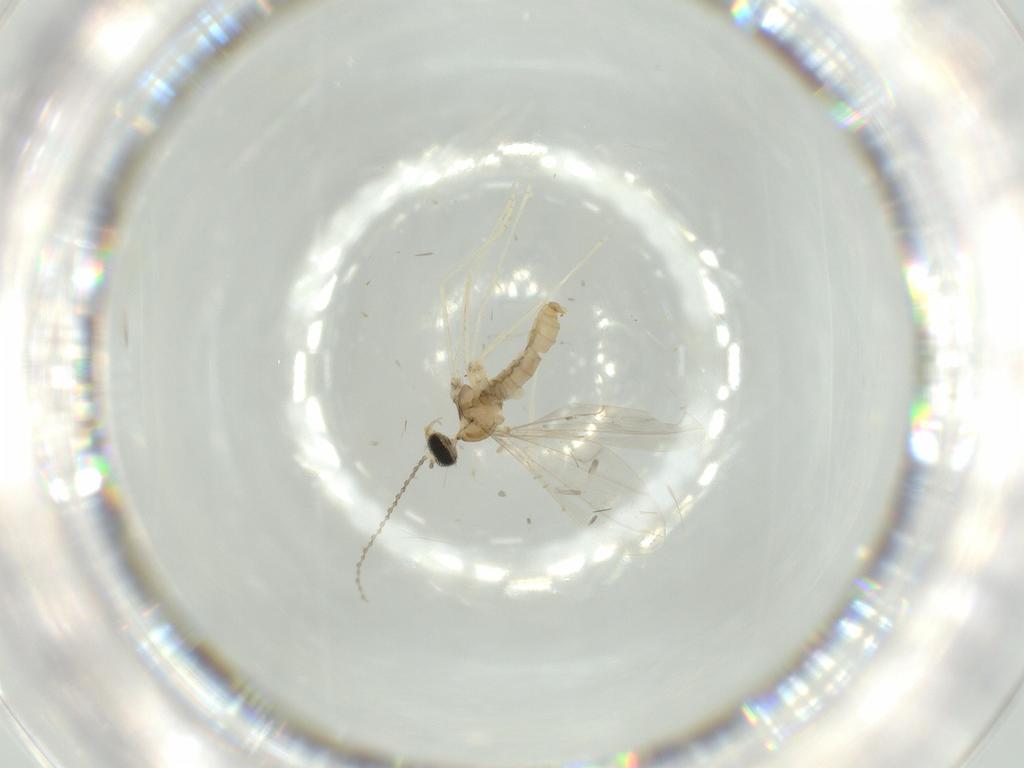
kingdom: Animalia
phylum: Arthropoda
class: Insecta
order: Diptera
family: Cecidomyiidae
